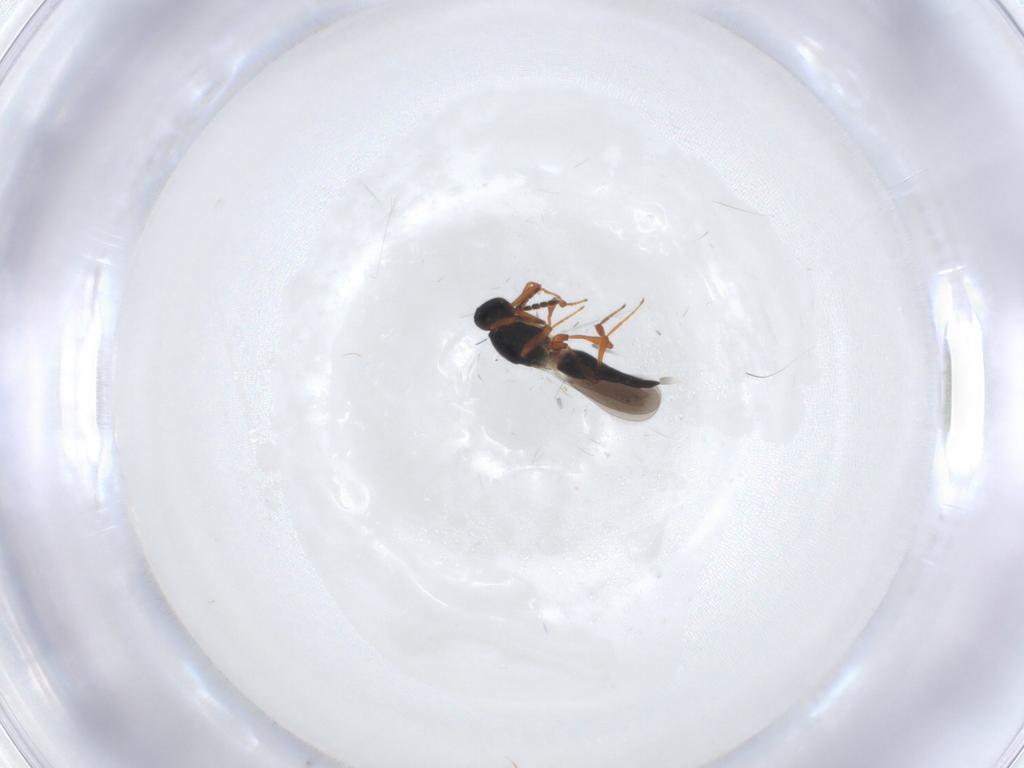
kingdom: Animalia
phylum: Arthropoda
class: Insecta
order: Hymenoptera
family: Platygastridae
